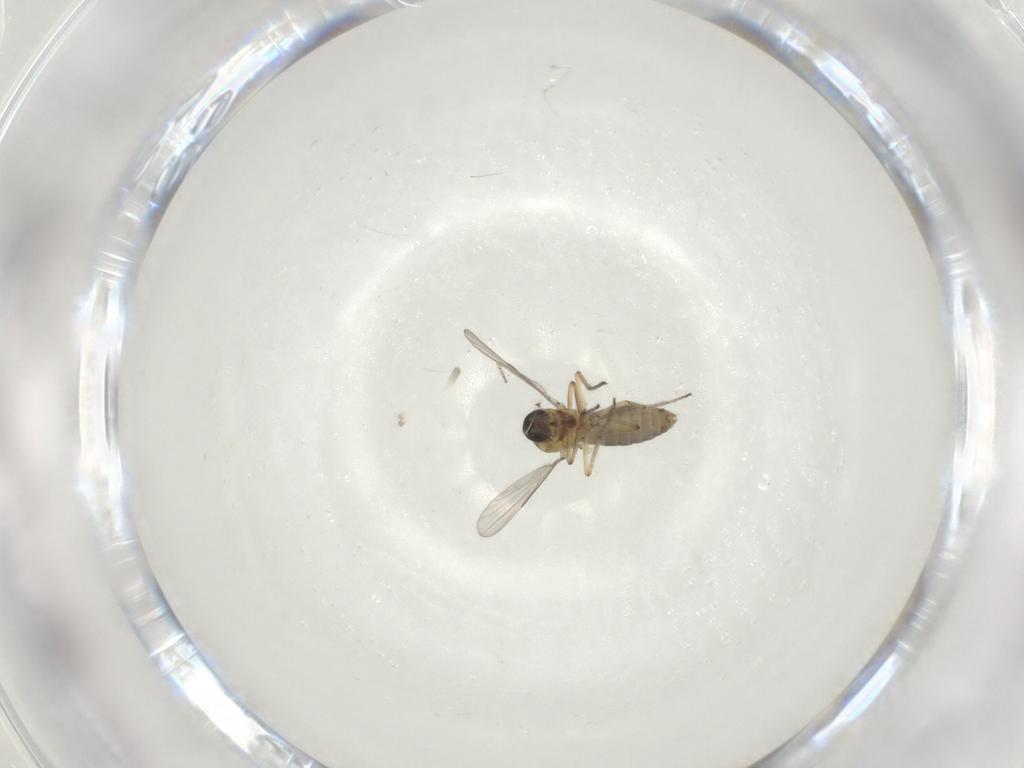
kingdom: Animalia
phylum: Arthropoda
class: Insecta
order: Diptera
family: Ceratopogonidae
